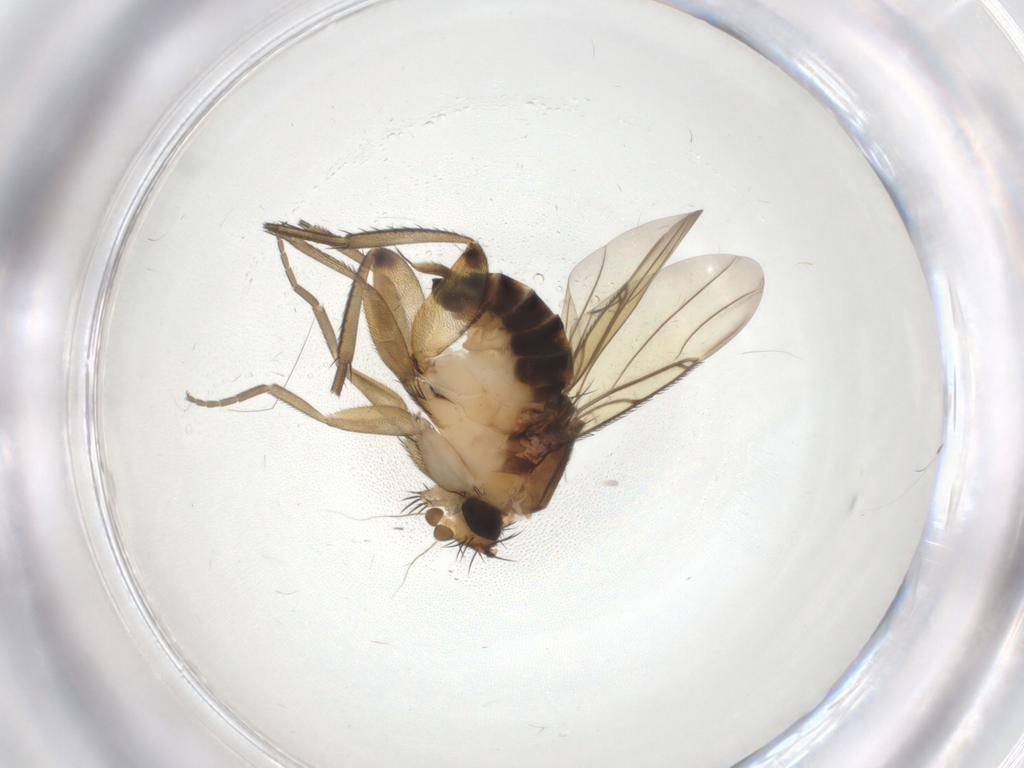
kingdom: Animalia
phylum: Arthropoda
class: Insecta
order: Diptera
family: Phoridae
